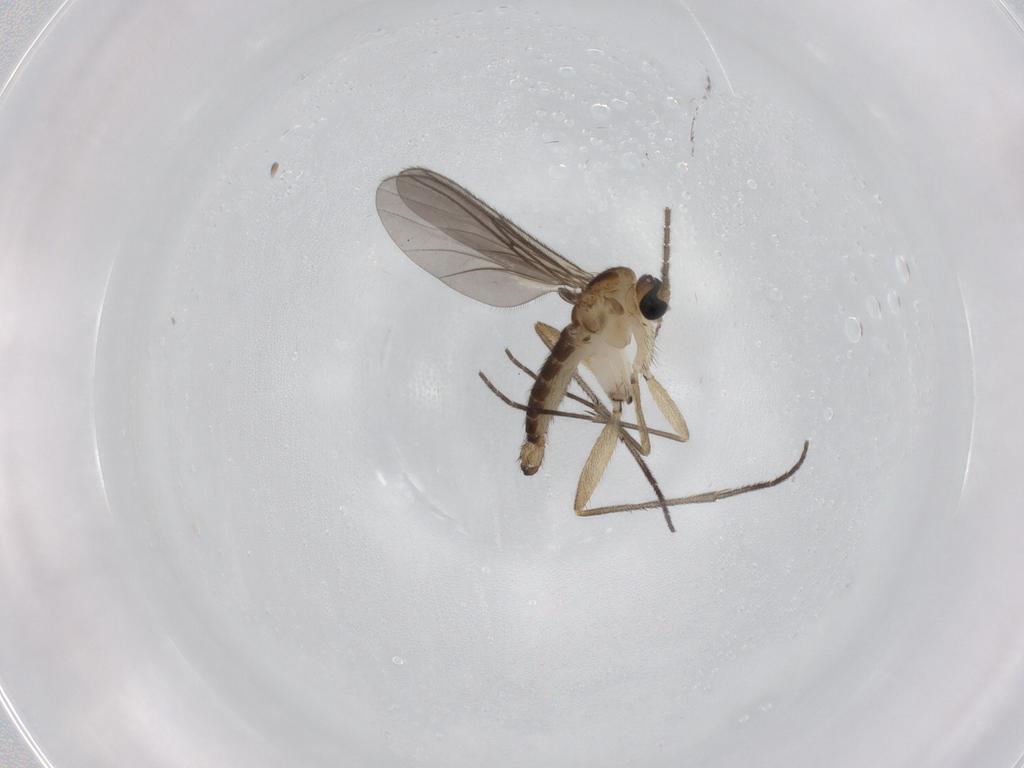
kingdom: Animalia
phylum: Arthropoda
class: Insecta
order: Diptera
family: Sciaridae
